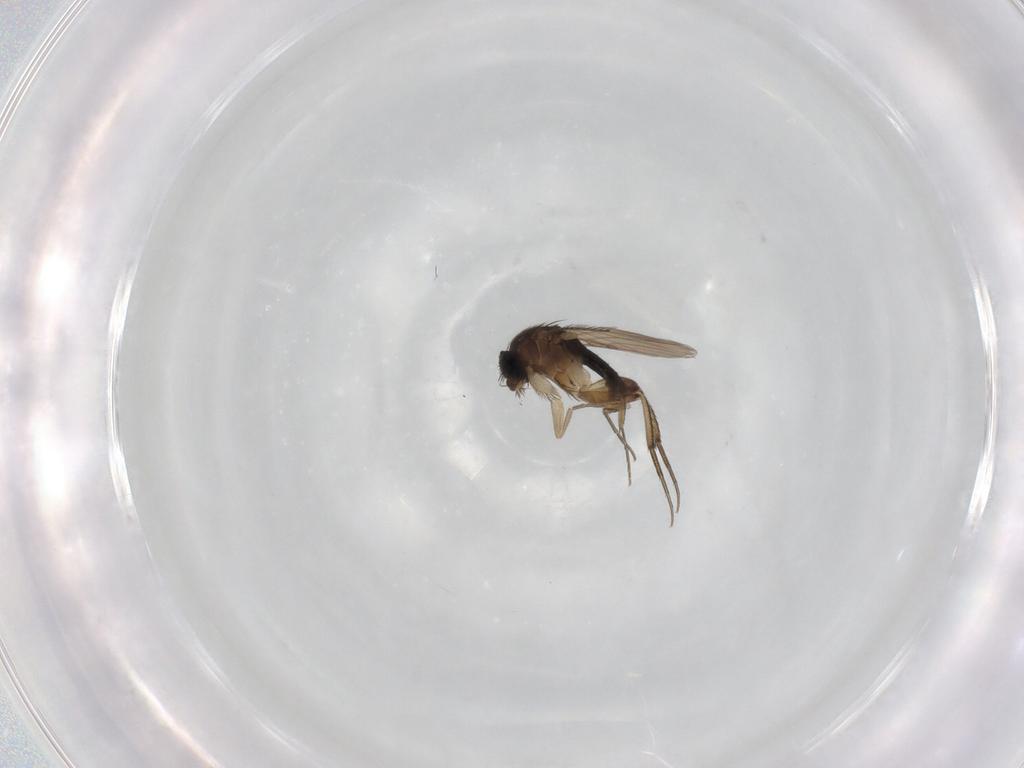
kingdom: Animalia
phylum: Arthropoda
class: Insecta
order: Diptera
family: Phoridae
